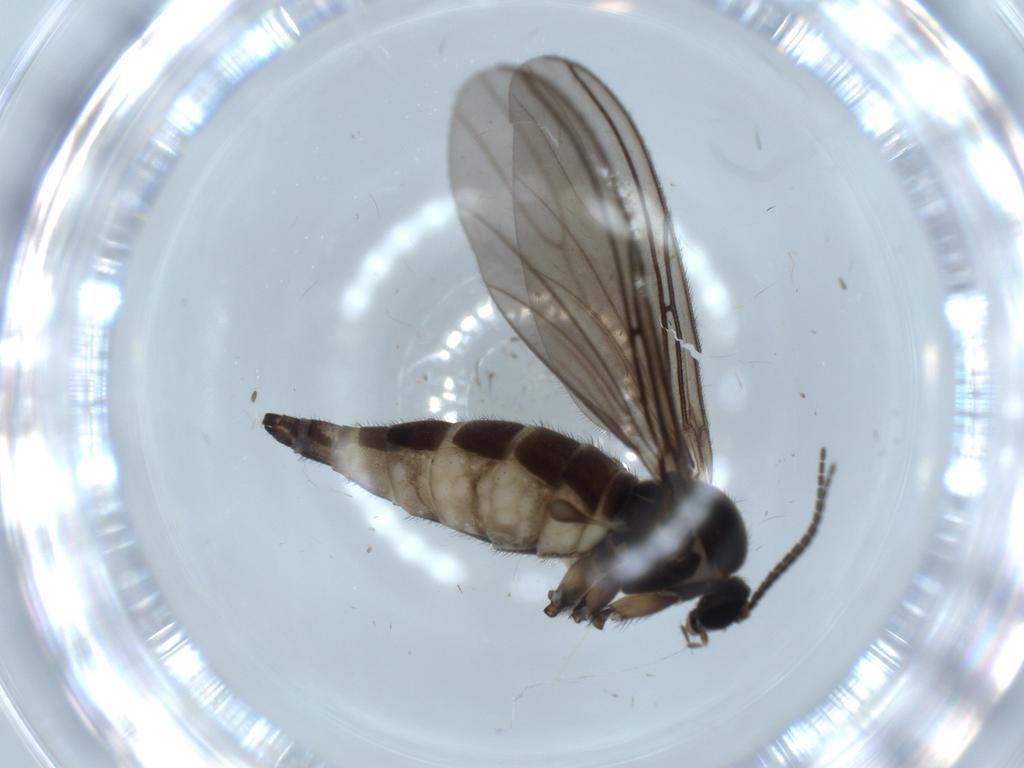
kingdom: Animalia
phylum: Arthropoda
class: Insecta
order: Diptera
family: Sciaridae
